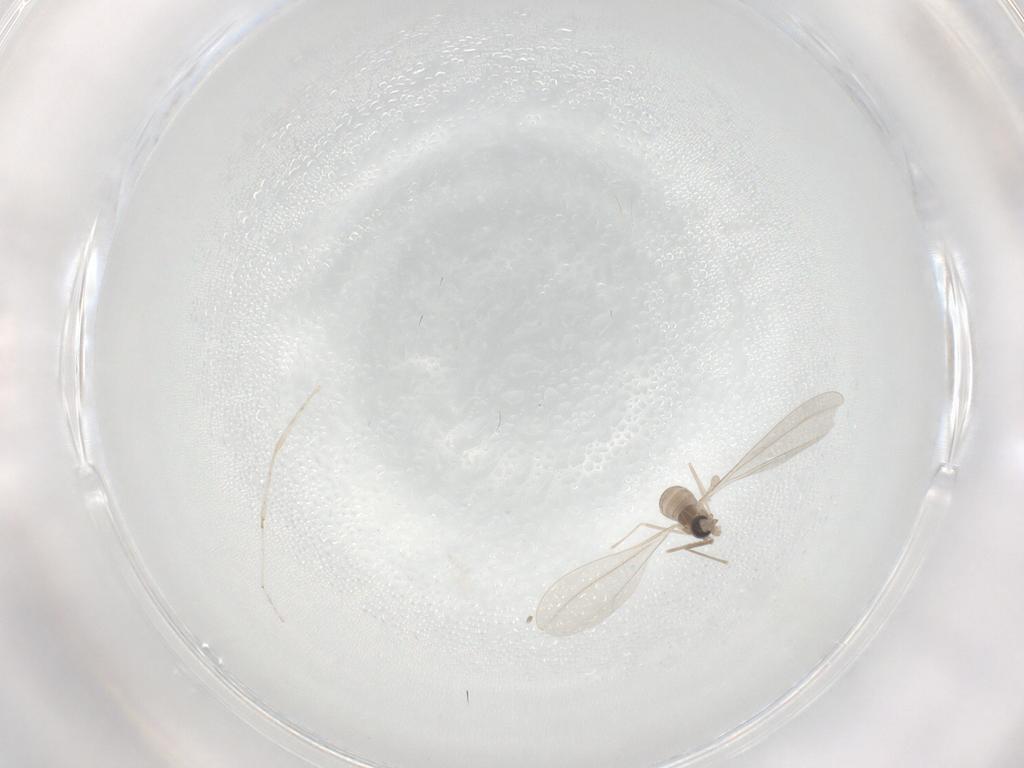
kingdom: Animalia
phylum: Arthropoda
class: Insecta
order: Diptera
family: Cecidomyiidae
